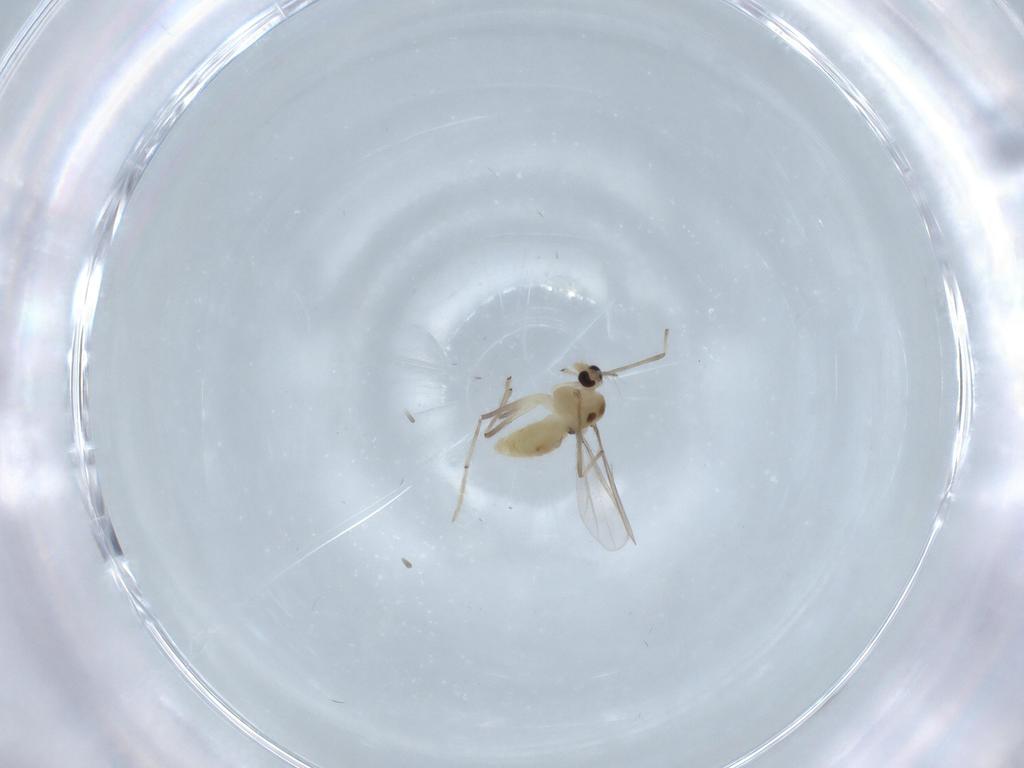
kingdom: Animalia
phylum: Arthropoda
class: Insecta
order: Diptera
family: Chironomidae
